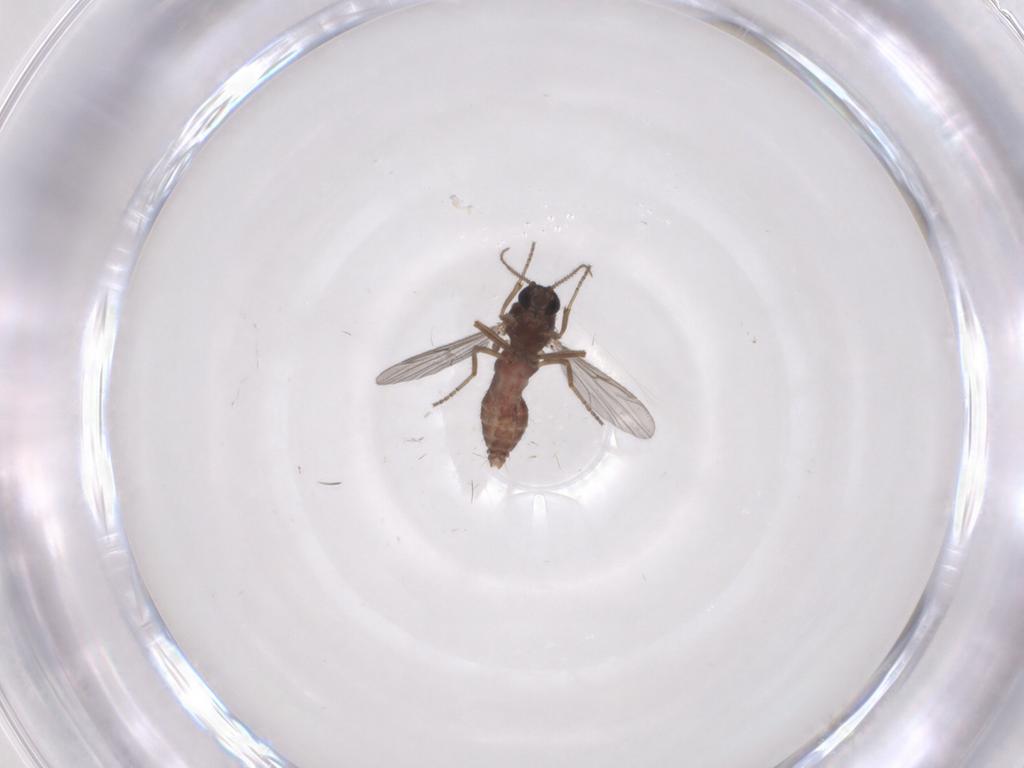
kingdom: Animalia
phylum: Arthropoda
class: Insecta
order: Diptera
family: Ceratopogonidae
